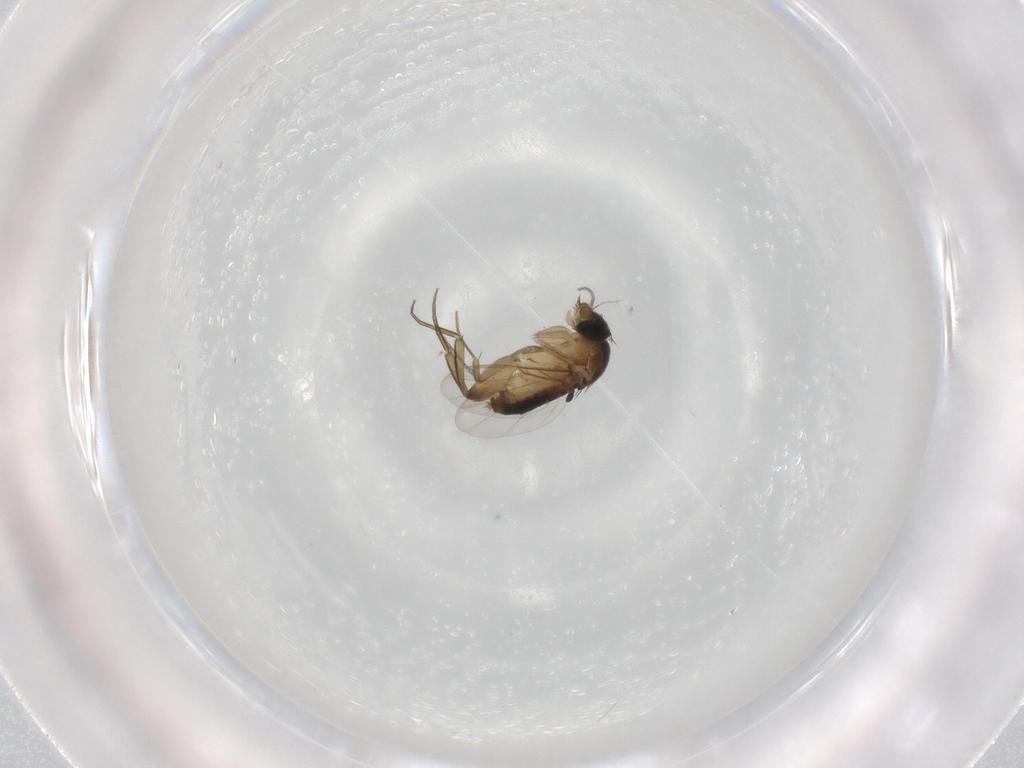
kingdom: Animalia
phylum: Arthropoda
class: Insecta
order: Diptera
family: Phoridae
